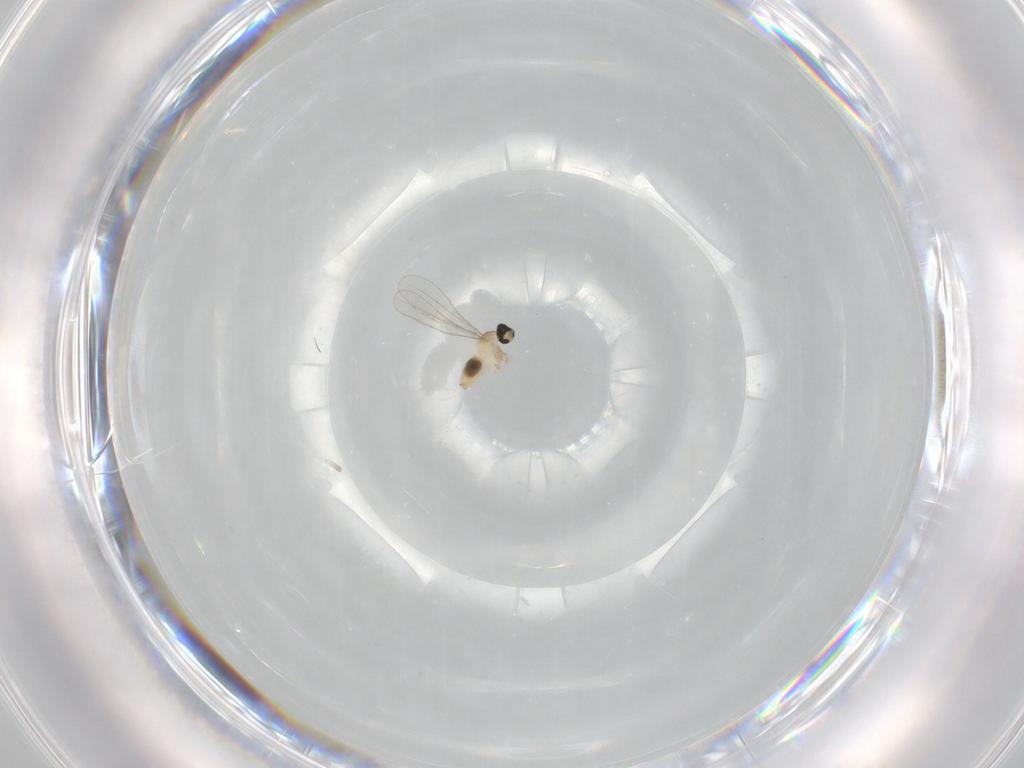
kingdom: Animalia
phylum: Arthropoda
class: Insecta
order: Diptera
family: Cecidomyiidae
